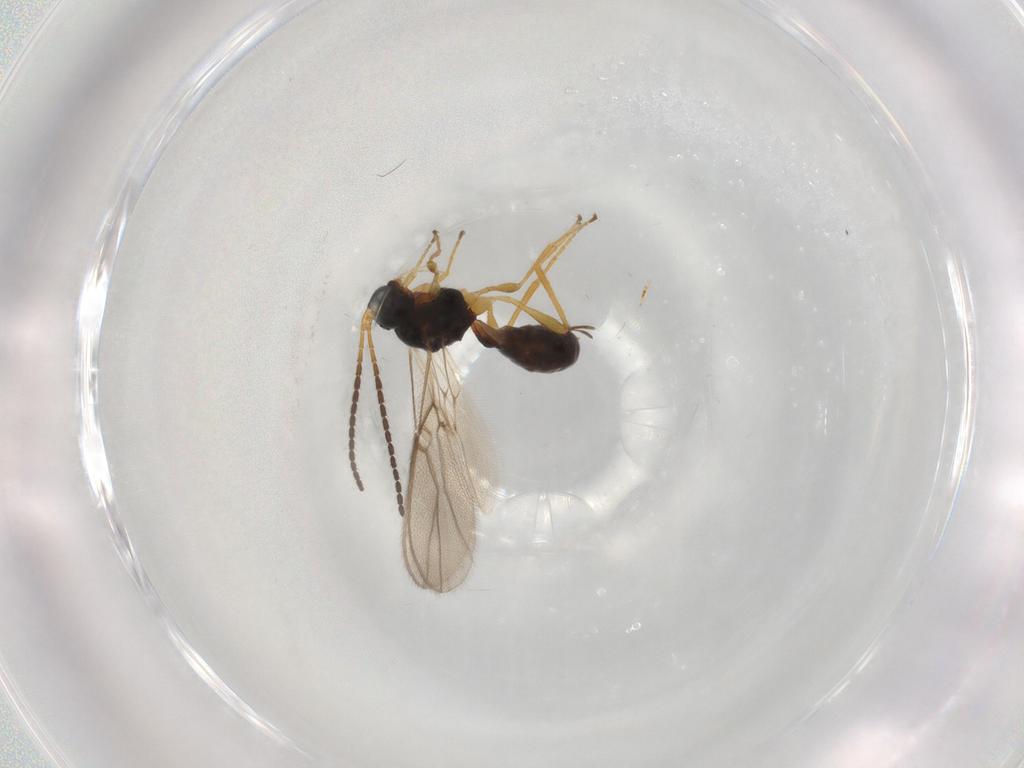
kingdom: Animalia
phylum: Arthropoda
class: Insecta
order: Hymenoptera
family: Braconidae
